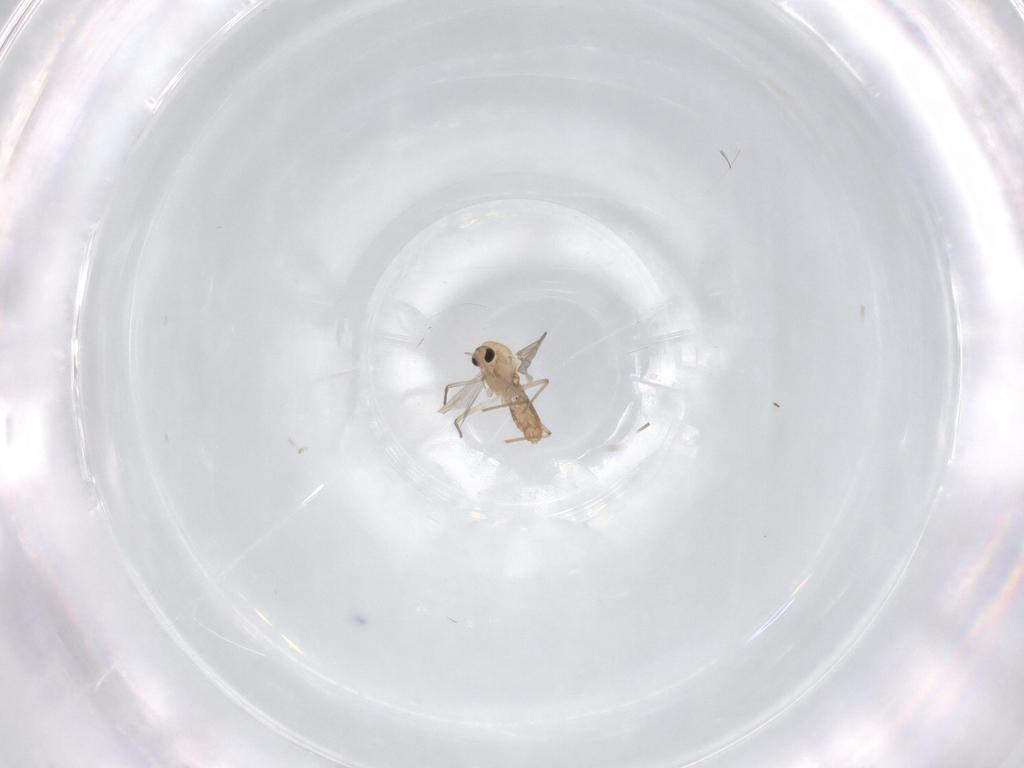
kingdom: Animalia
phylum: Arthropoda
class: Insecta
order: Diptera
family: Chironomidae
